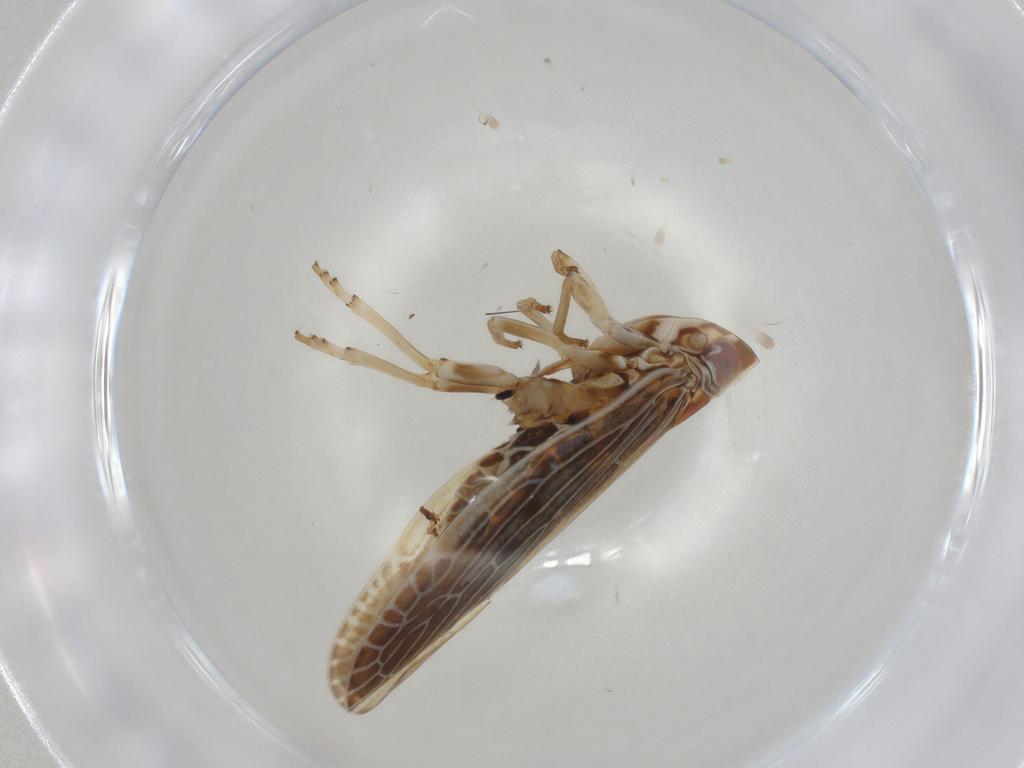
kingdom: Animalia
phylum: Arthropoda
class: Insecta
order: Hemiptera
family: Achilidae
